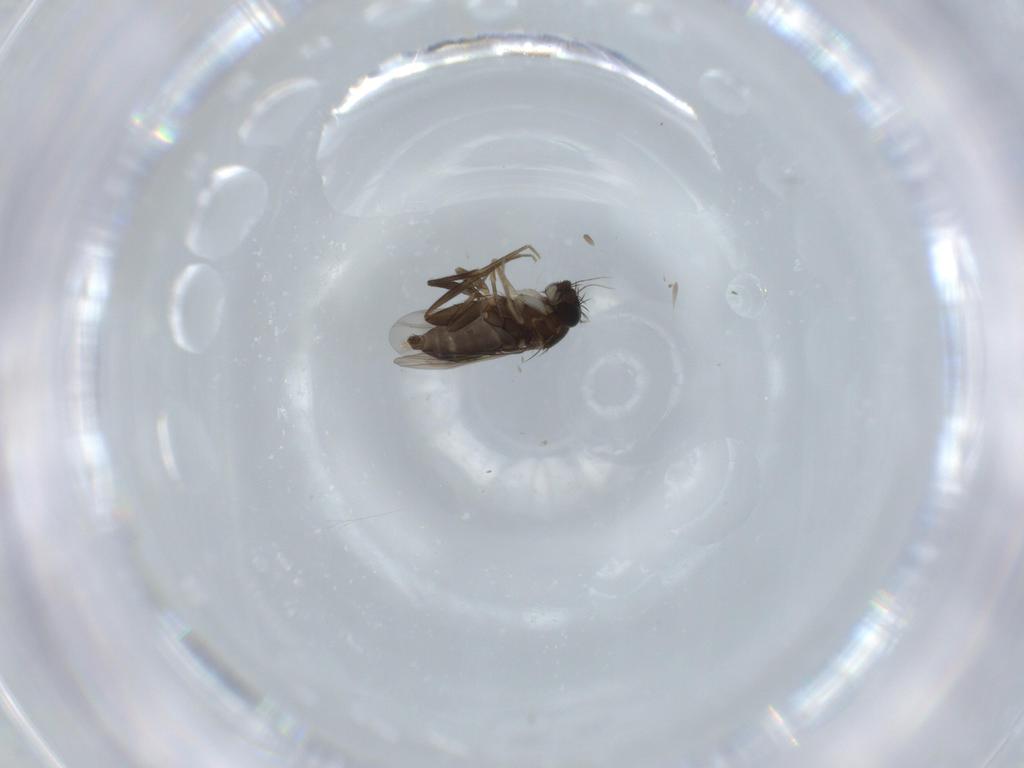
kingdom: Animalia
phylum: Arthropoda
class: Insecta
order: Diptera
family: Phoridae
